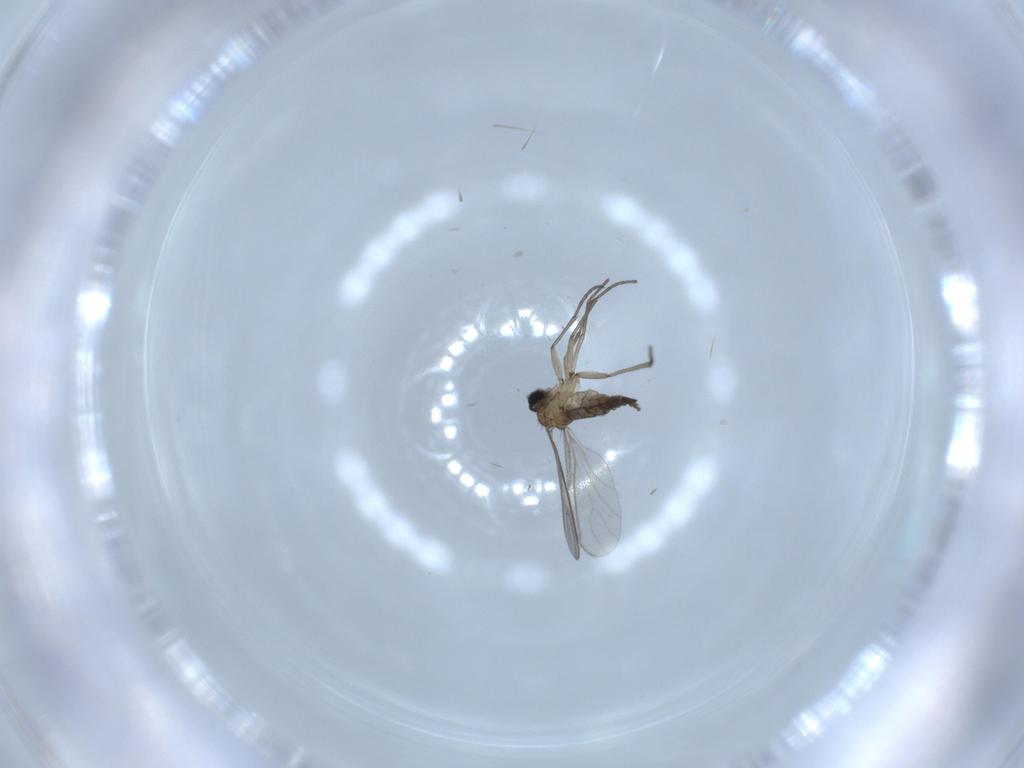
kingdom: Animalia
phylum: Arthropoda
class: Insecta
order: Diptera
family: Sciaridae
